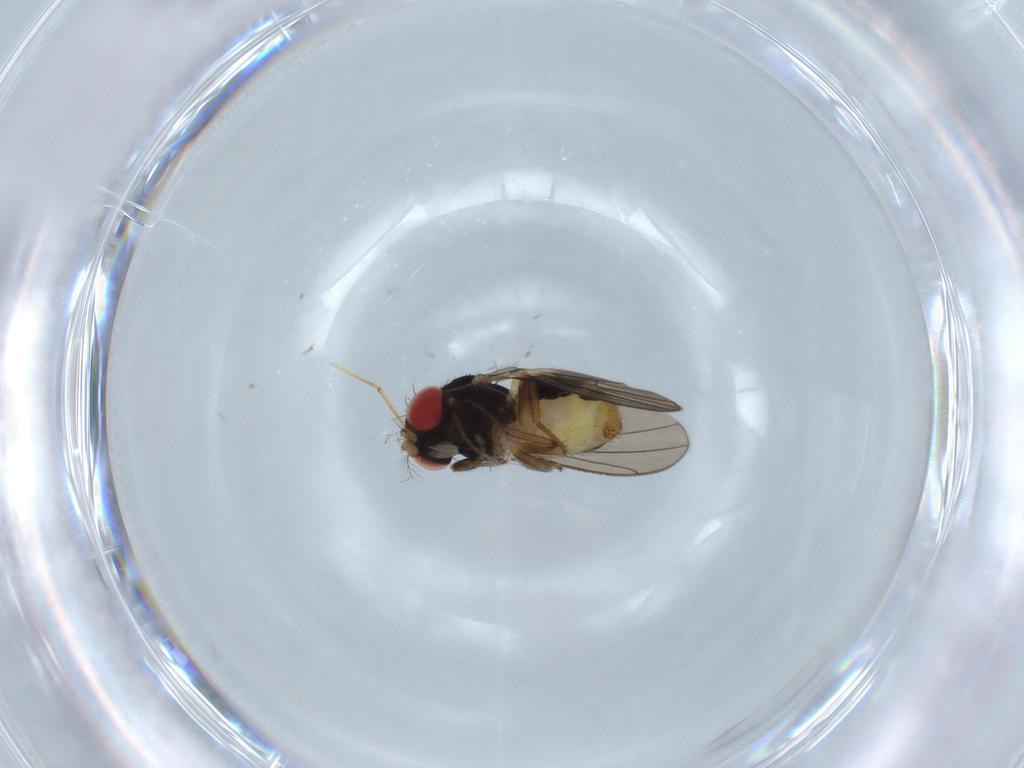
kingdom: Animalia
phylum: Arthropoda
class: Insecta
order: Diptera
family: Drosophilidae
